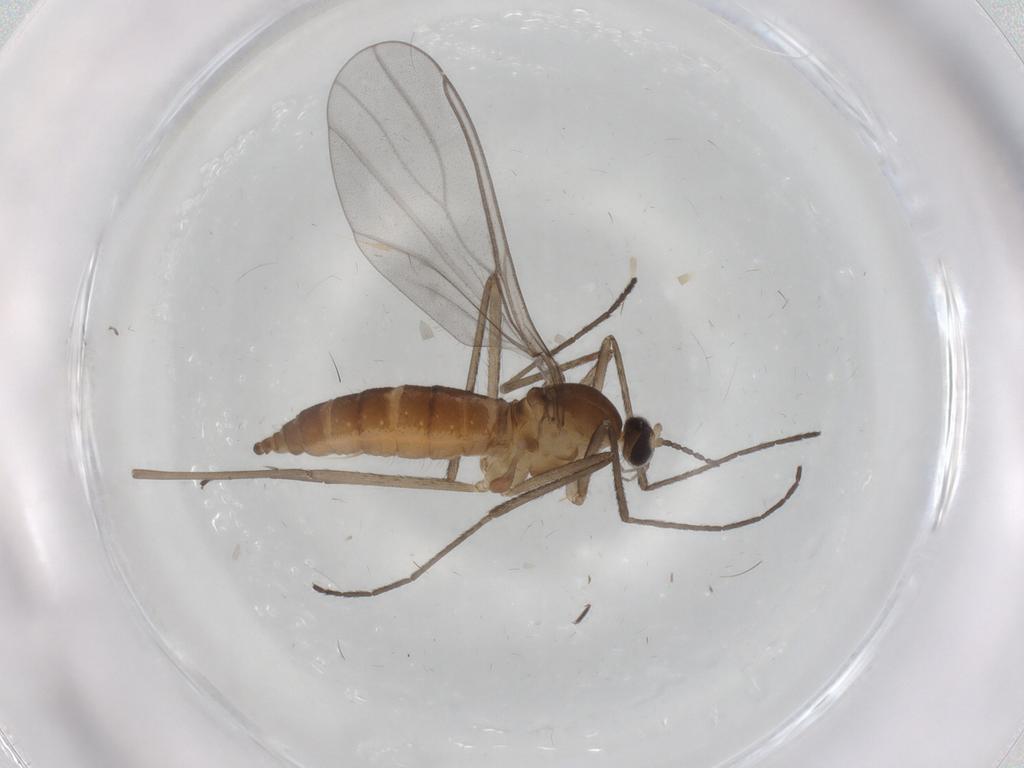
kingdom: Animalia
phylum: Arthropoda
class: Insecta
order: Diptera
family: Cecidomyiidae
